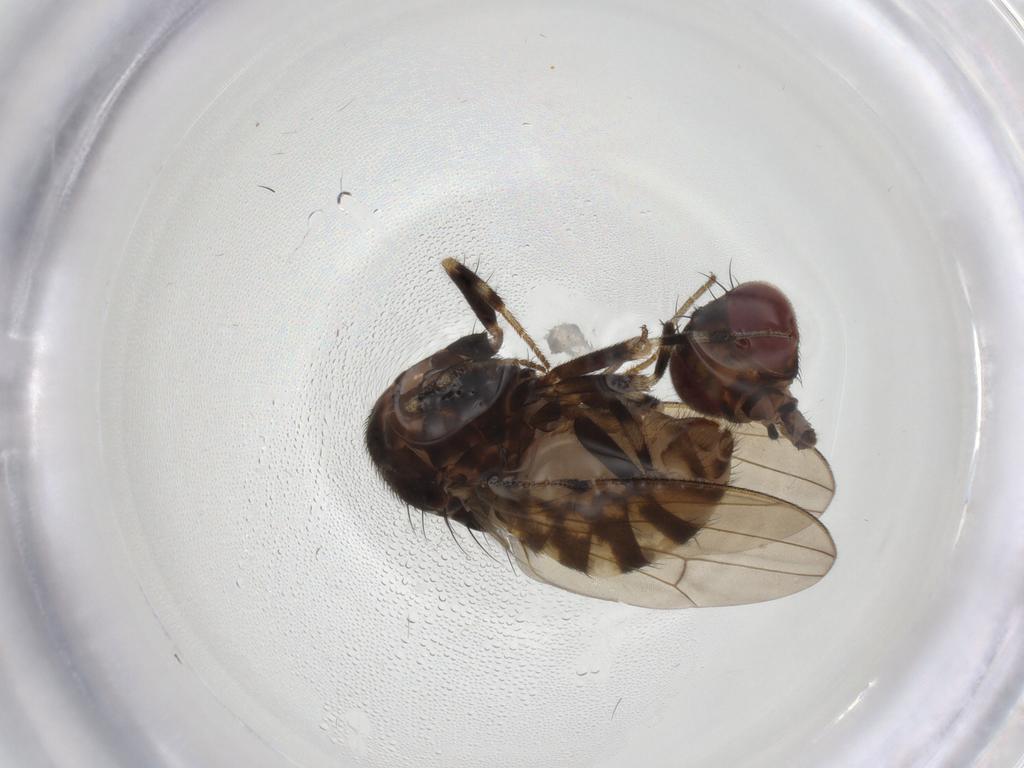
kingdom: Animalia
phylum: Arthropoda
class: Insecta
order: Diptera
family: Drosophilidae
